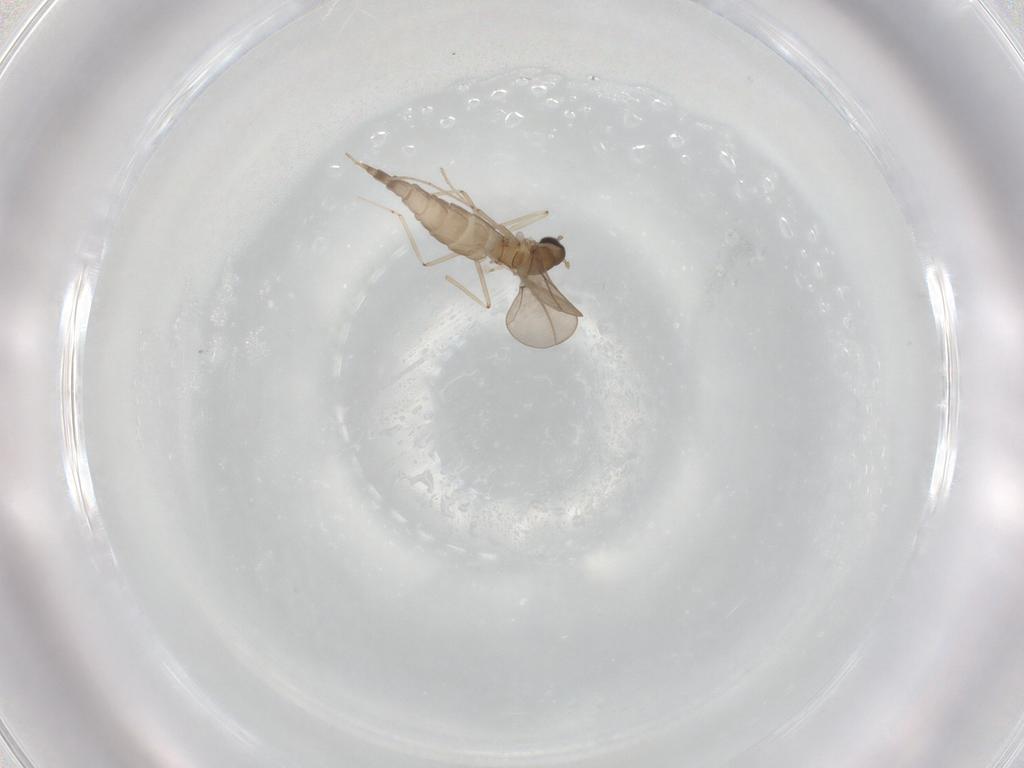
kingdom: Animalia
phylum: Arthropoda
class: Insecta
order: Diptera
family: Cecidomyiidae
